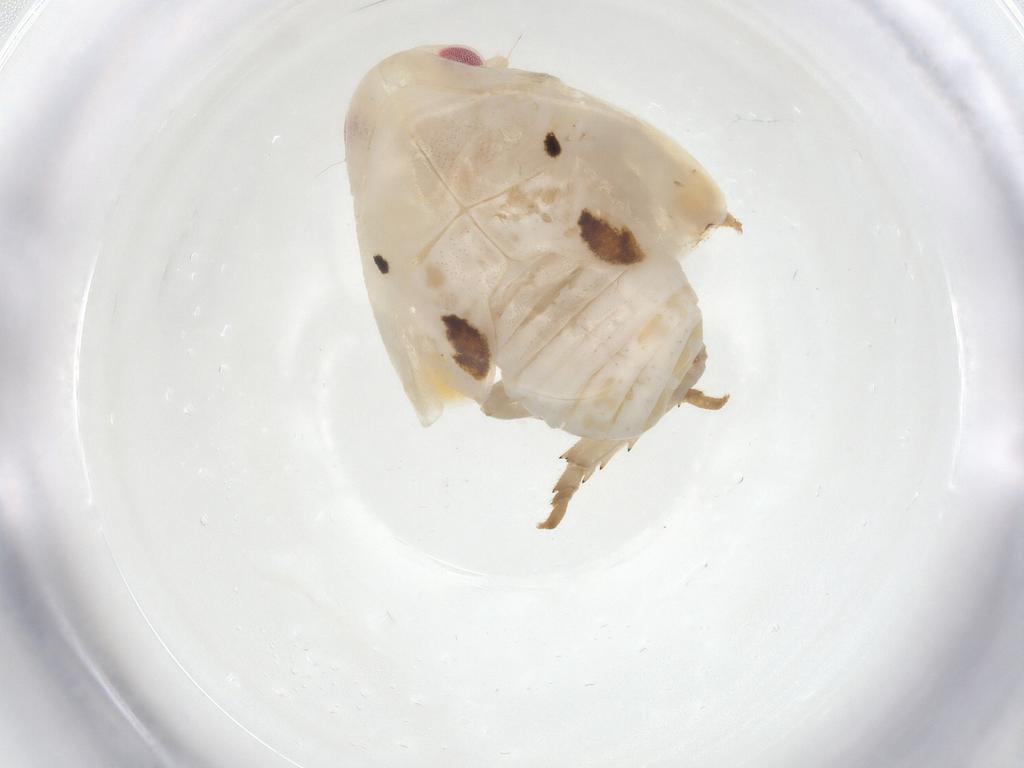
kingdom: Animalia
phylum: Arthropoda
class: Insecta
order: Hemiptera
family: Flatidae
